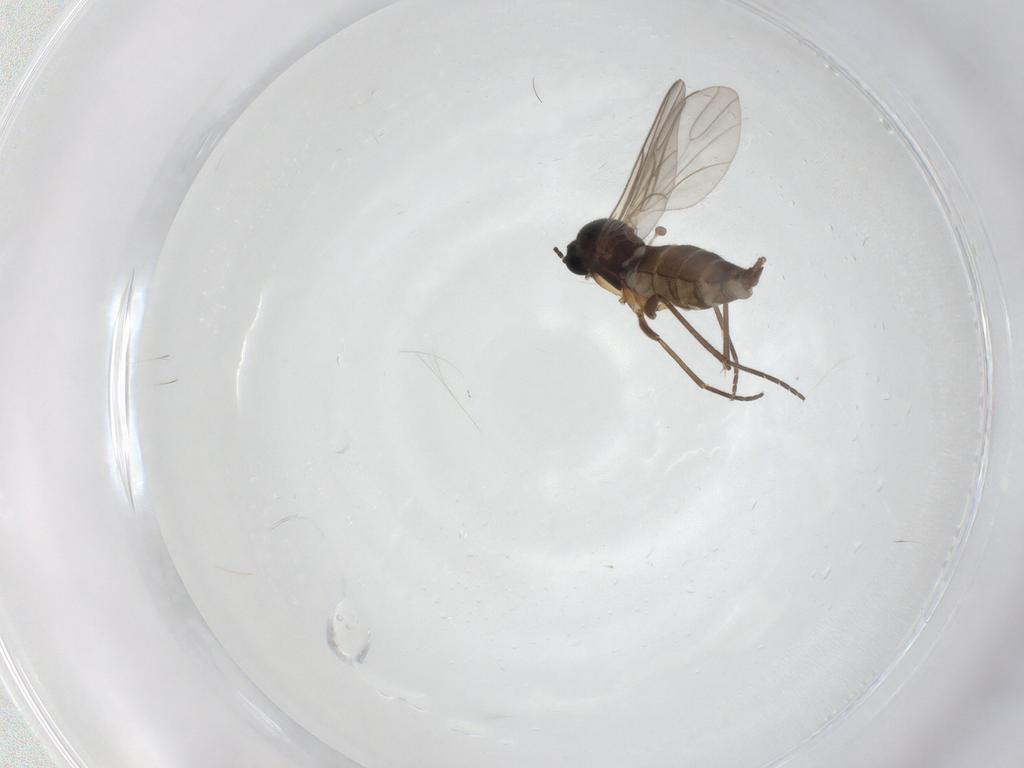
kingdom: Animalia
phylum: Arthropoda
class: Insecta
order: Diptera
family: Sciaridae
